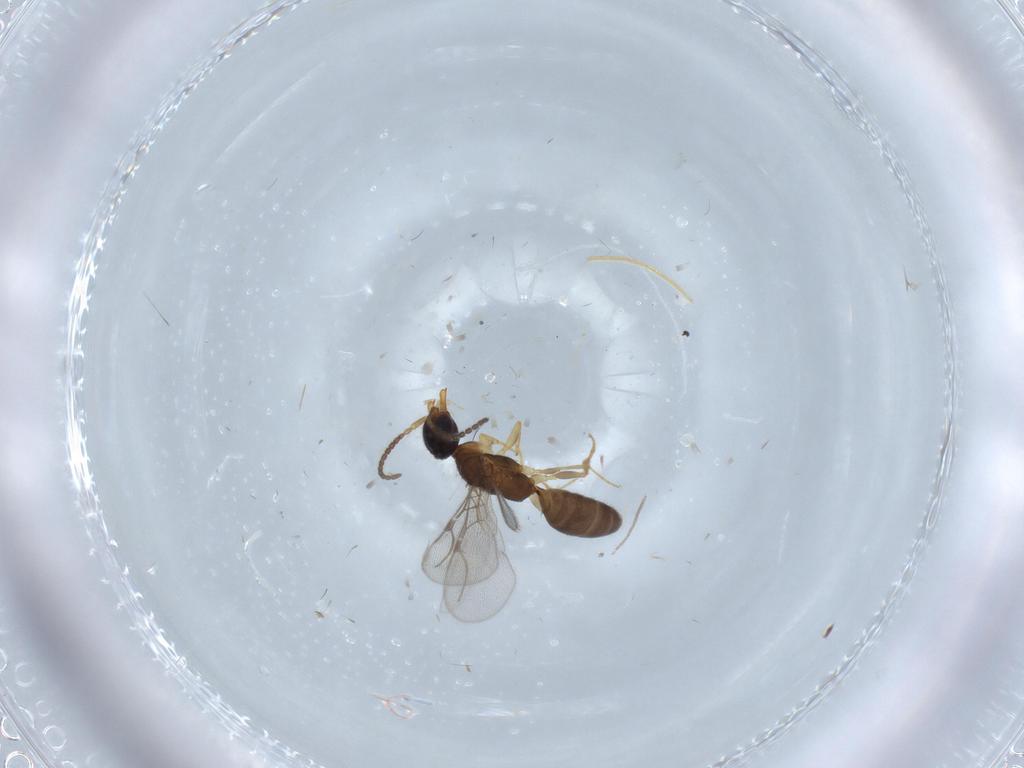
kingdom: Animalia
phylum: Arthropoda
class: Insecta
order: Hymenoptera
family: Bethylidae
